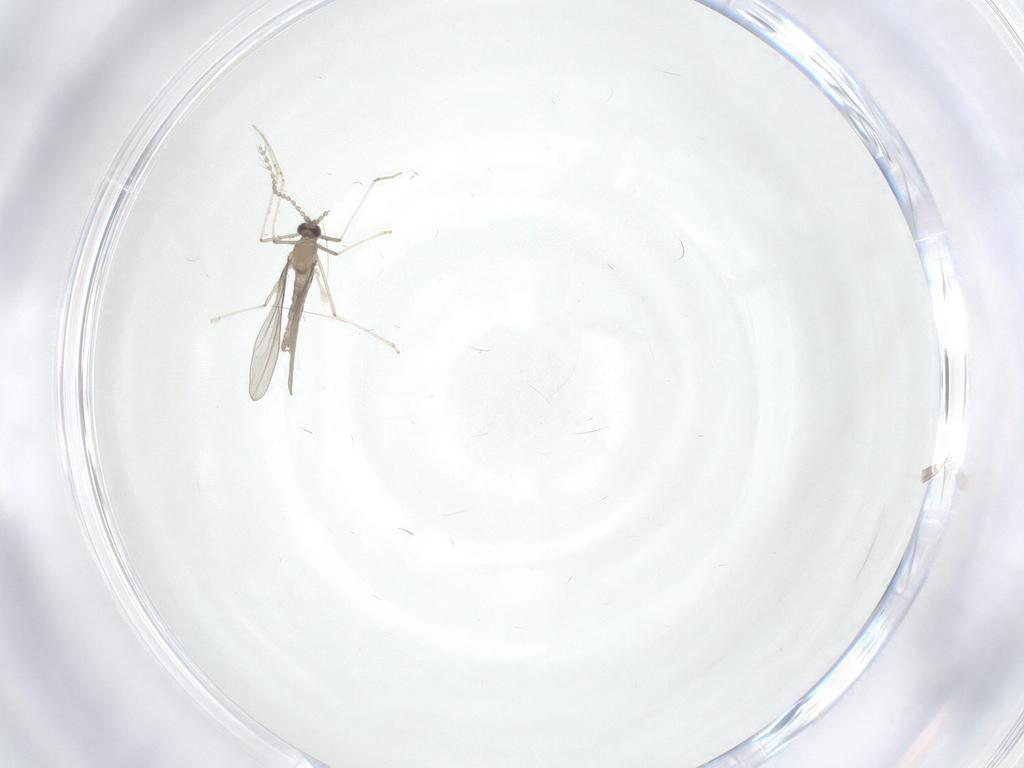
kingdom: Animalia
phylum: Arthropoda
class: Insecta
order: Diptera
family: Cecidomyiidae
